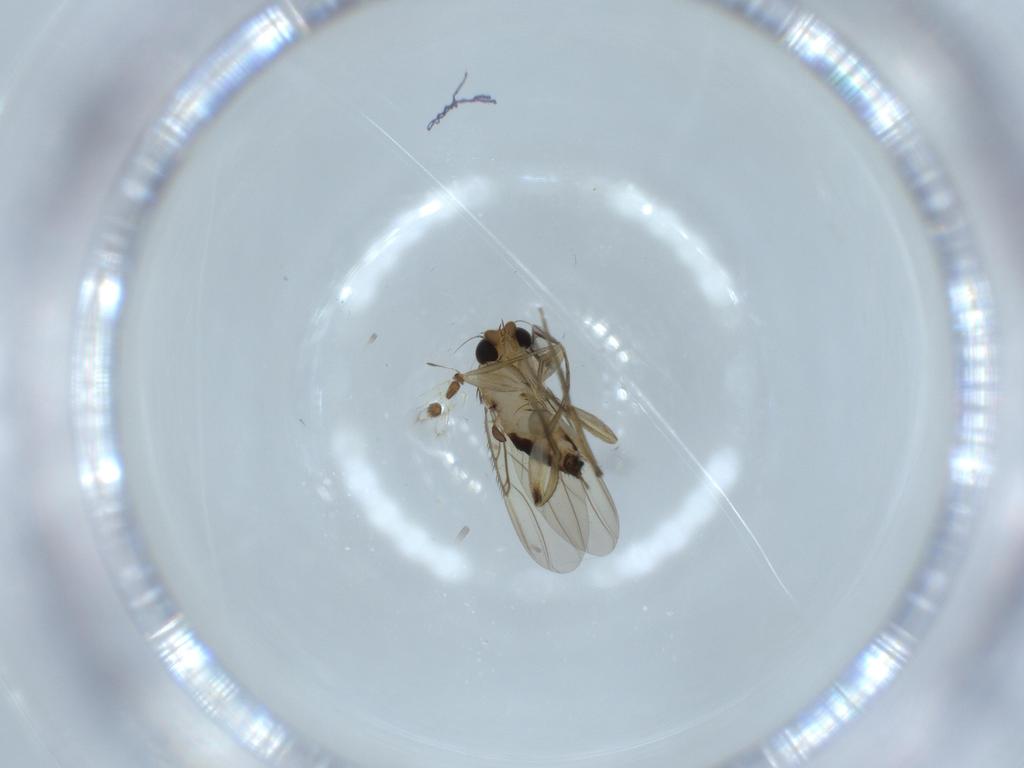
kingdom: Animalia
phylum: Arthropoda
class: Insecta
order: Diptera
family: Phoridae
